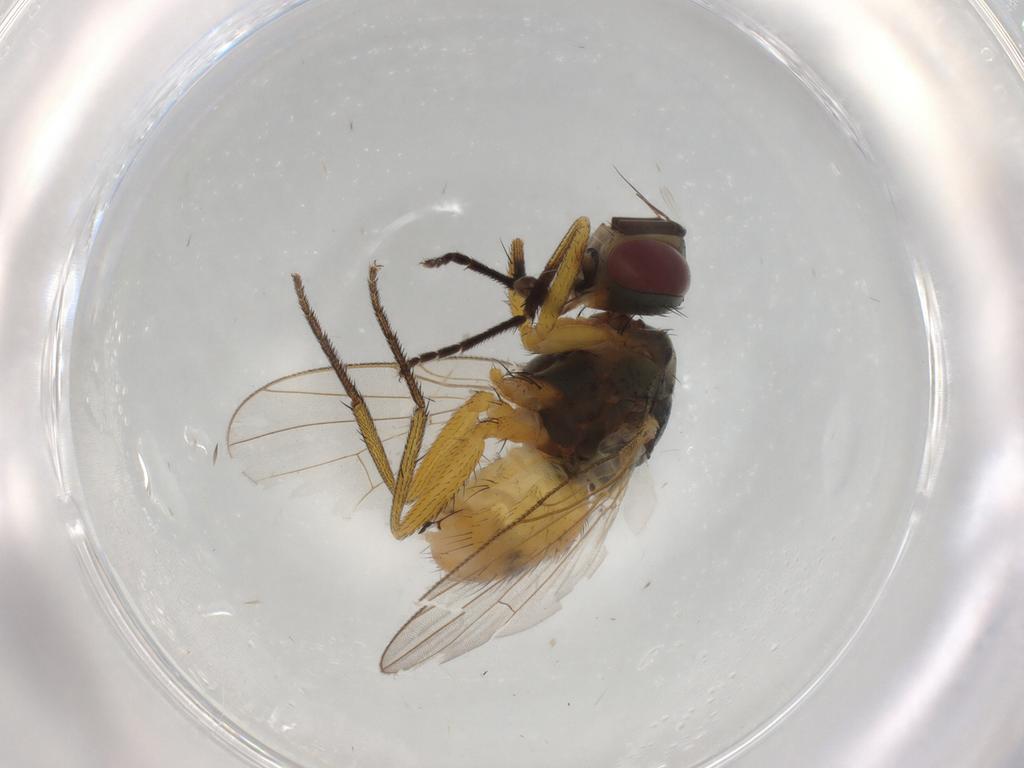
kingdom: Animalia
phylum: Arthropoda
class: Insecta
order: Diptera
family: Muscidae
